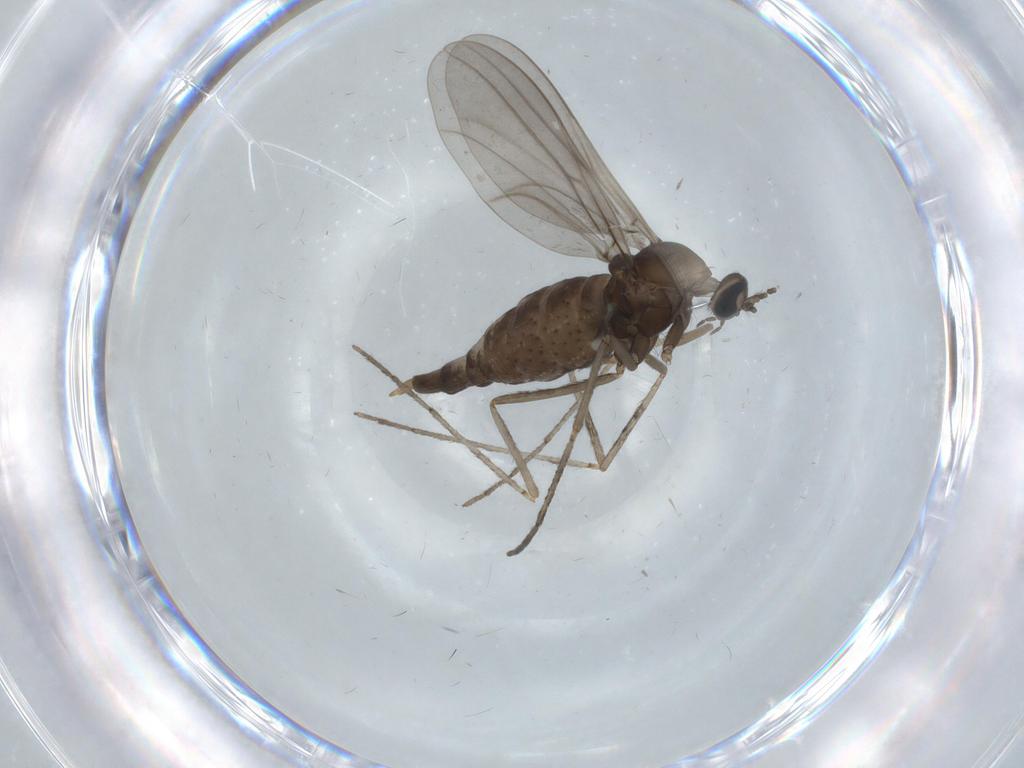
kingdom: Animalia
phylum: Arthropoda
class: Insecta
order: Diptera
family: Cecidomyiidae
